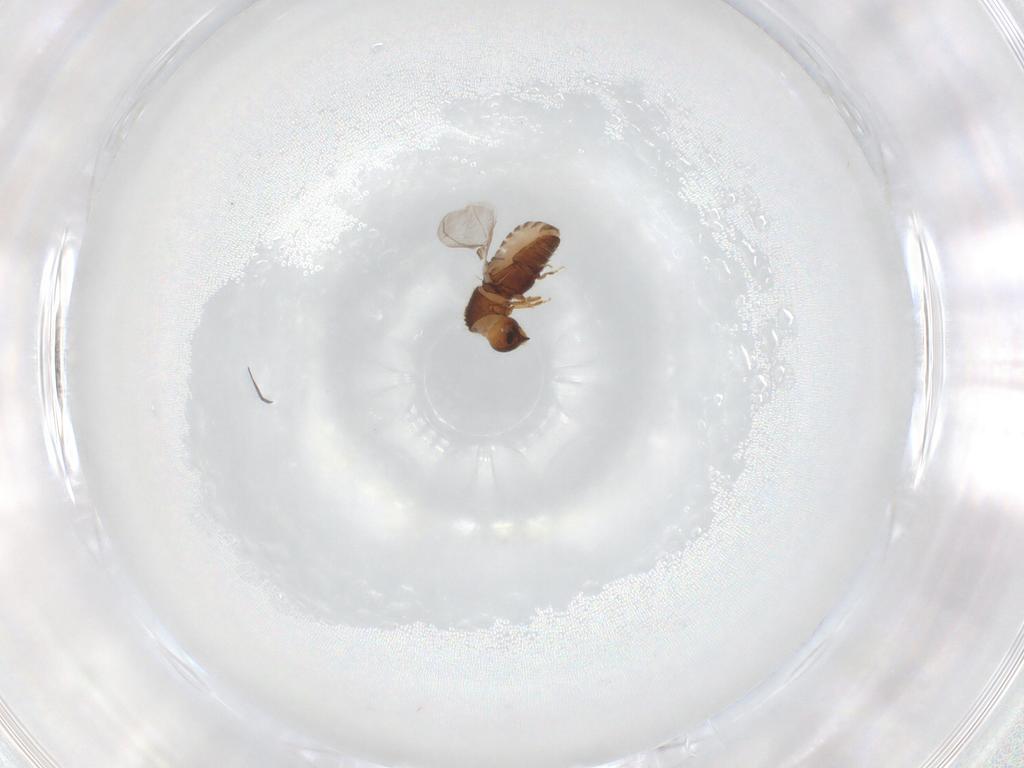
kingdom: Animalia
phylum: Arthropoda
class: Insecta
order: Coleoptera
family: Curculionidae
